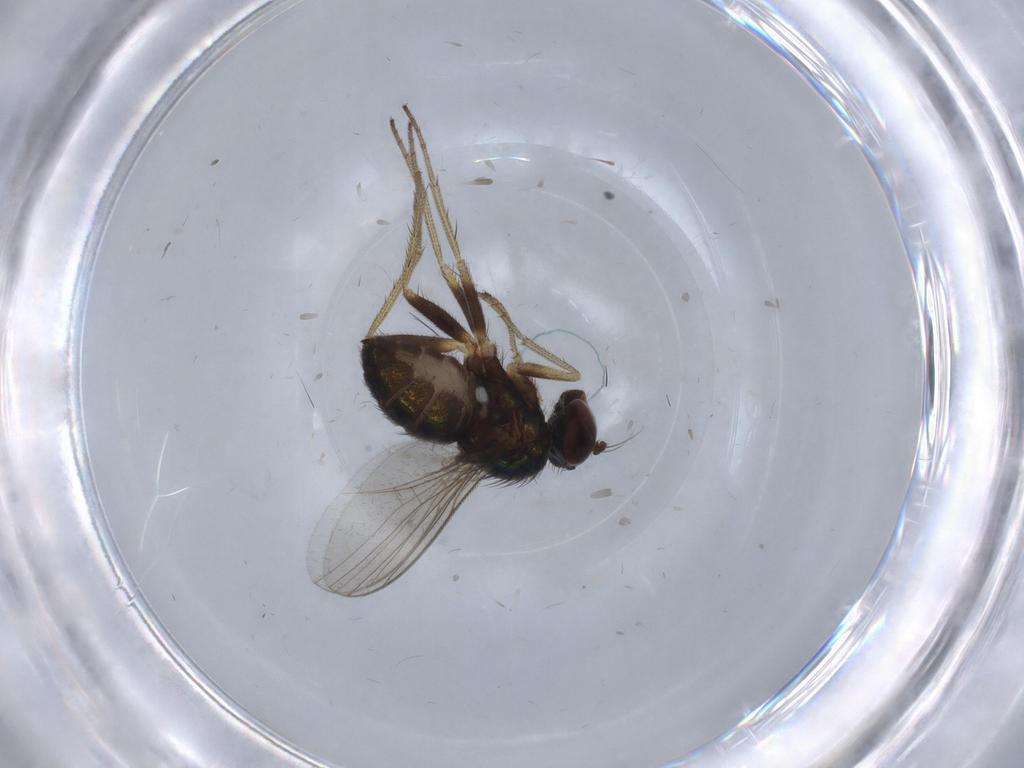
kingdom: Animalia
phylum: Arthropoda
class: Insecta
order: Diptera
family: Dolichopodidae
